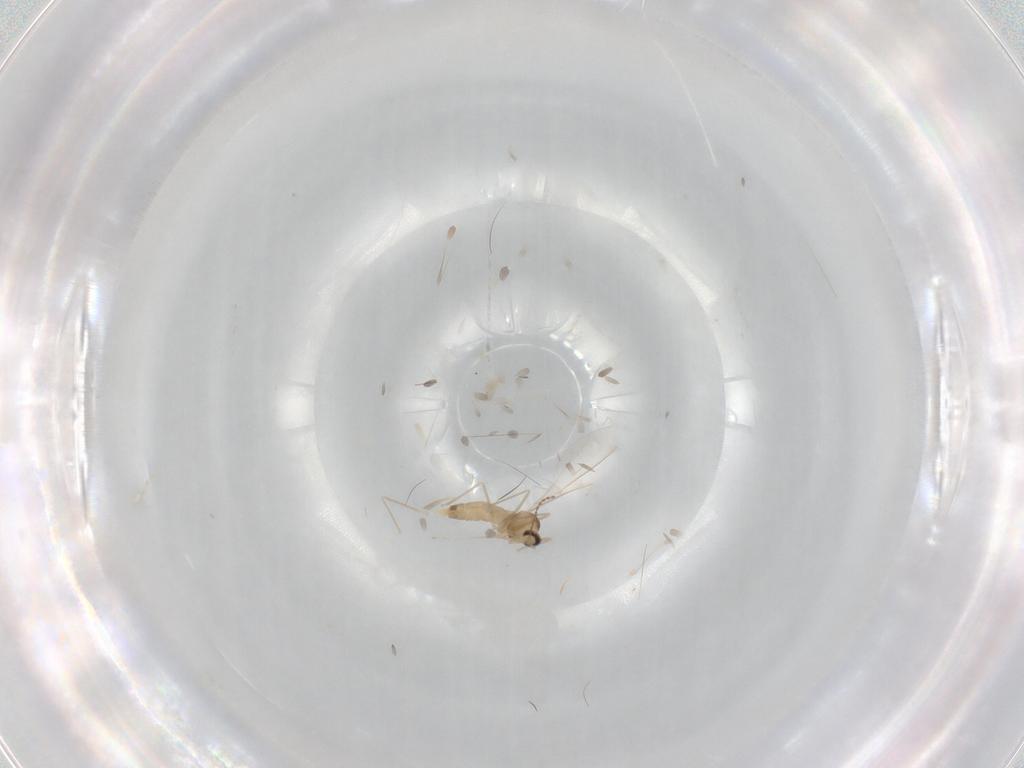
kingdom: Animalia
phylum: Arthropoda
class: Insecta
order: Diptera
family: Cecidomyiidae
